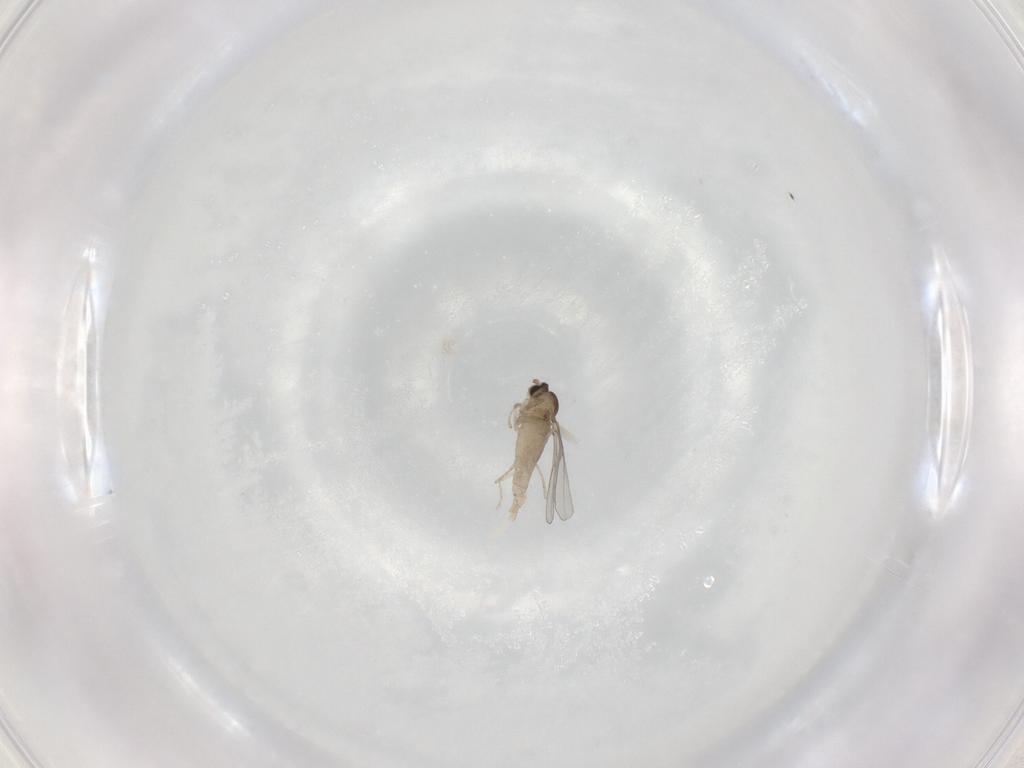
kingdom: Animalia
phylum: Arthropoda
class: Insecta
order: Diptera
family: Cecidomyiidae
